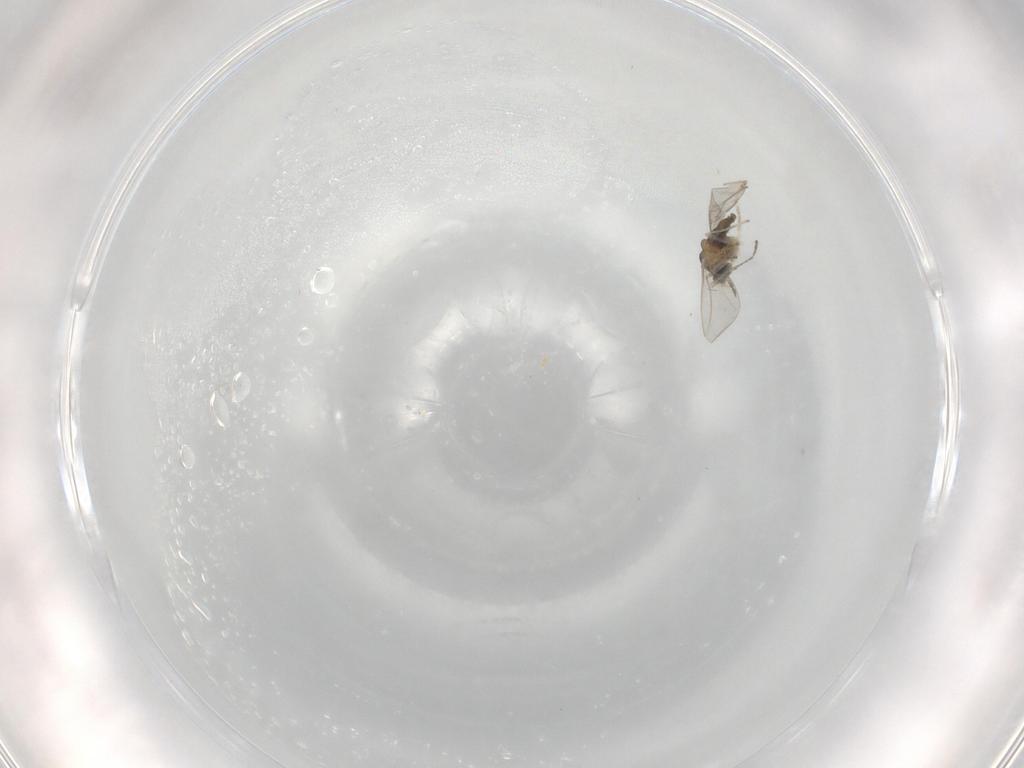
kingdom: Animalia
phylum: Arthropoda
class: Insecta
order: Diptera
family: Cecidomyiidae
